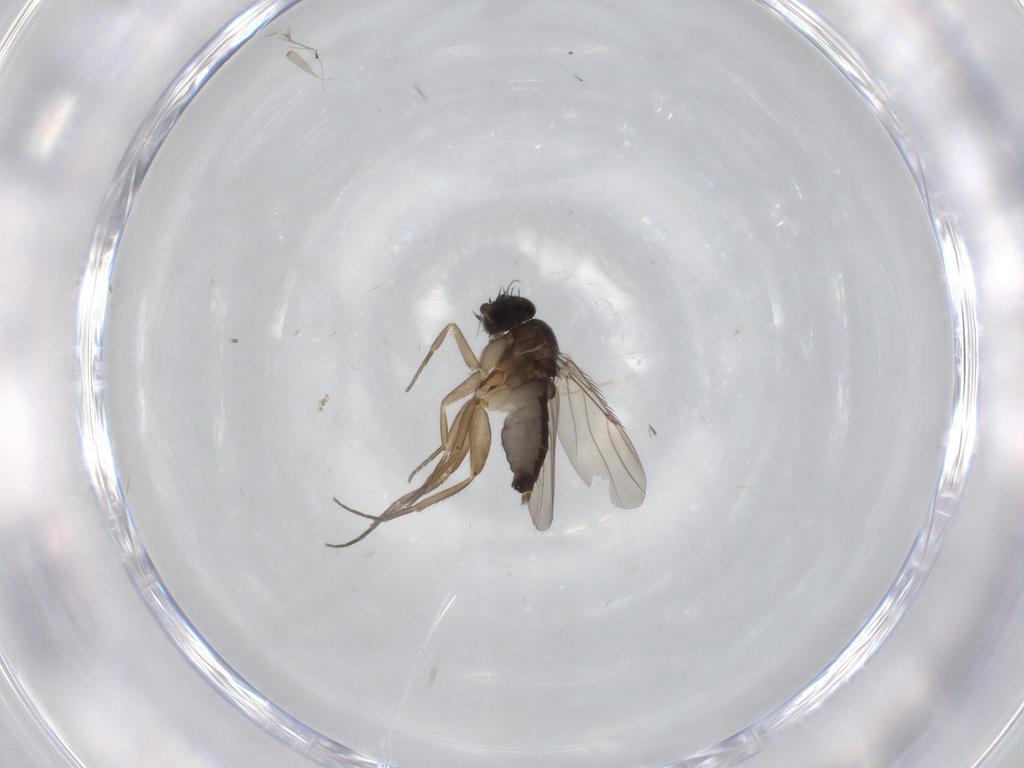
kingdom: Animalia
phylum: Arthropoda
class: Insecta
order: Diptera
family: Phoridae
